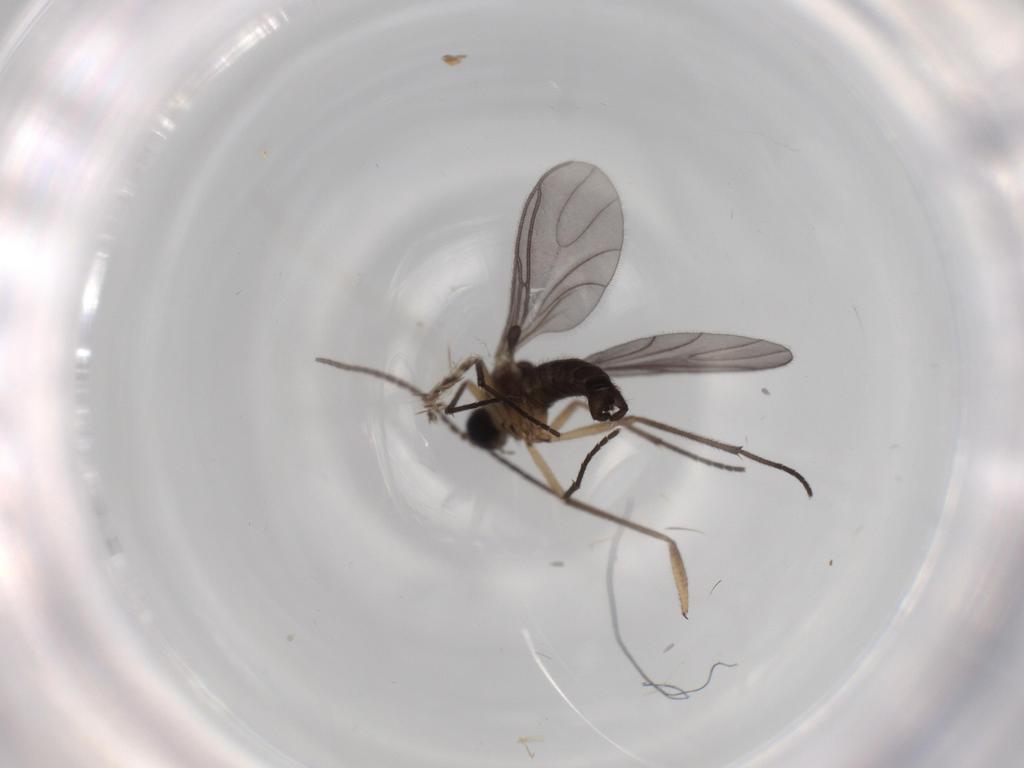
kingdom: Animalia
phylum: Arthropoda
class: Insecta
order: Diptera
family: Sciaridae
